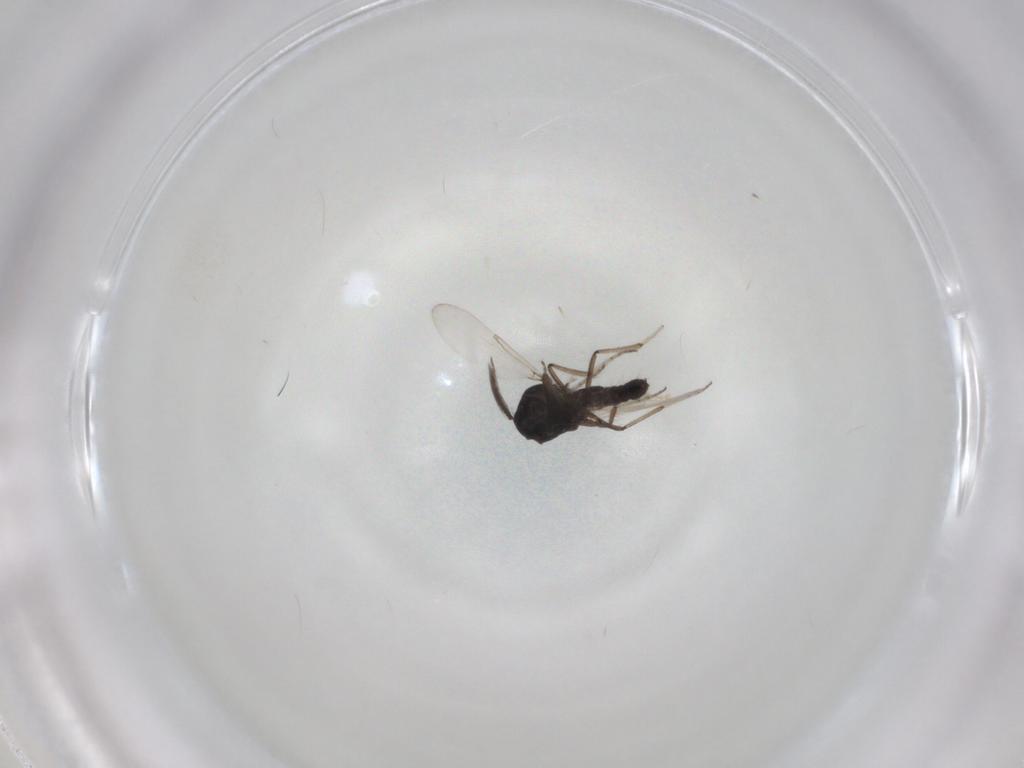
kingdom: Animalia
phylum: Arthropoda
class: Insecta
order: Diptera
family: Ceratopogonidae
